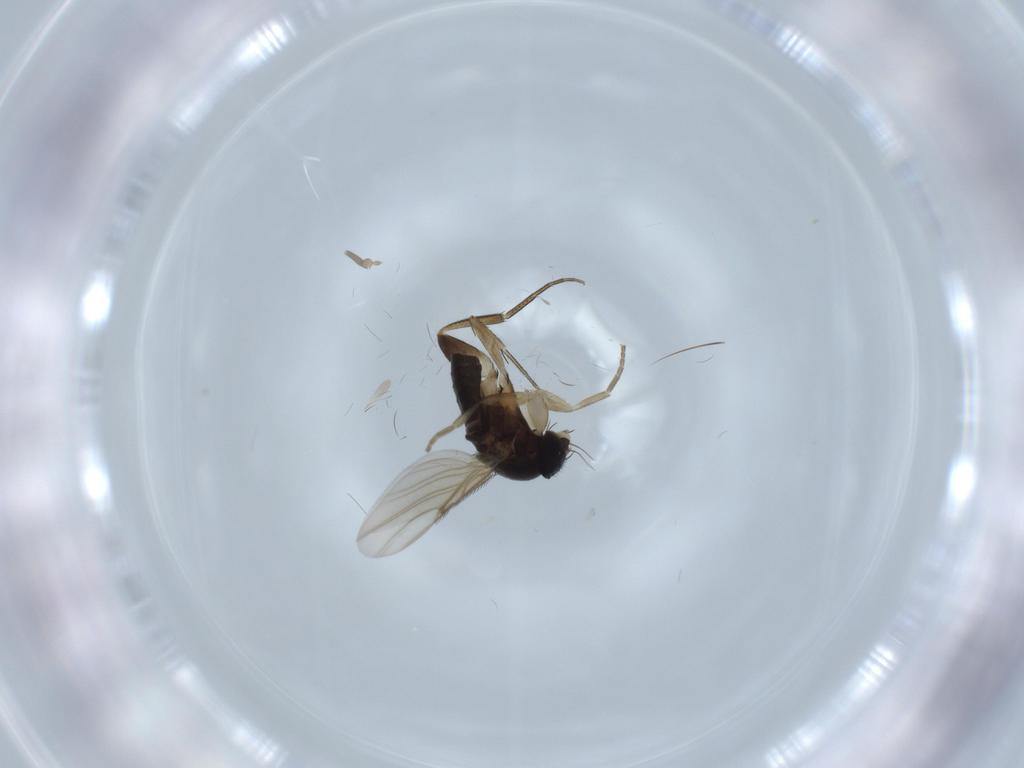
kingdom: Animalia
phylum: Arthropoda
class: Insecta
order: Diptera
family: Phoridae
